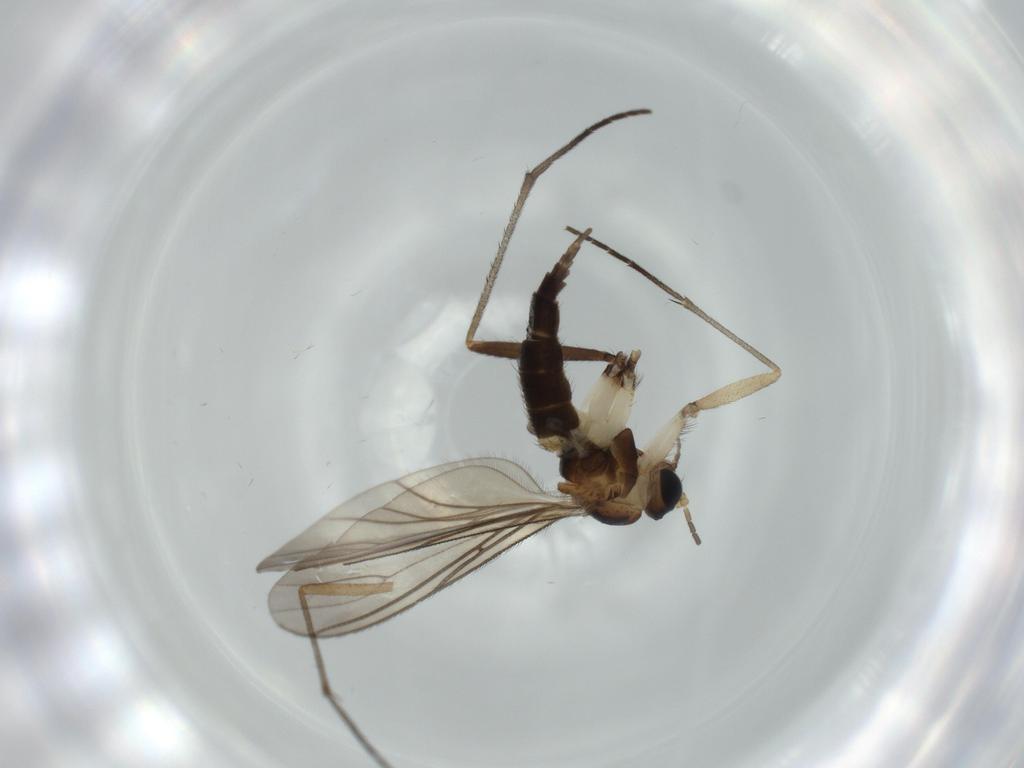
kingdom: Animalia
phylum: Arthropoda
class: Insecta
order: Diptera
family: Sciaridae
